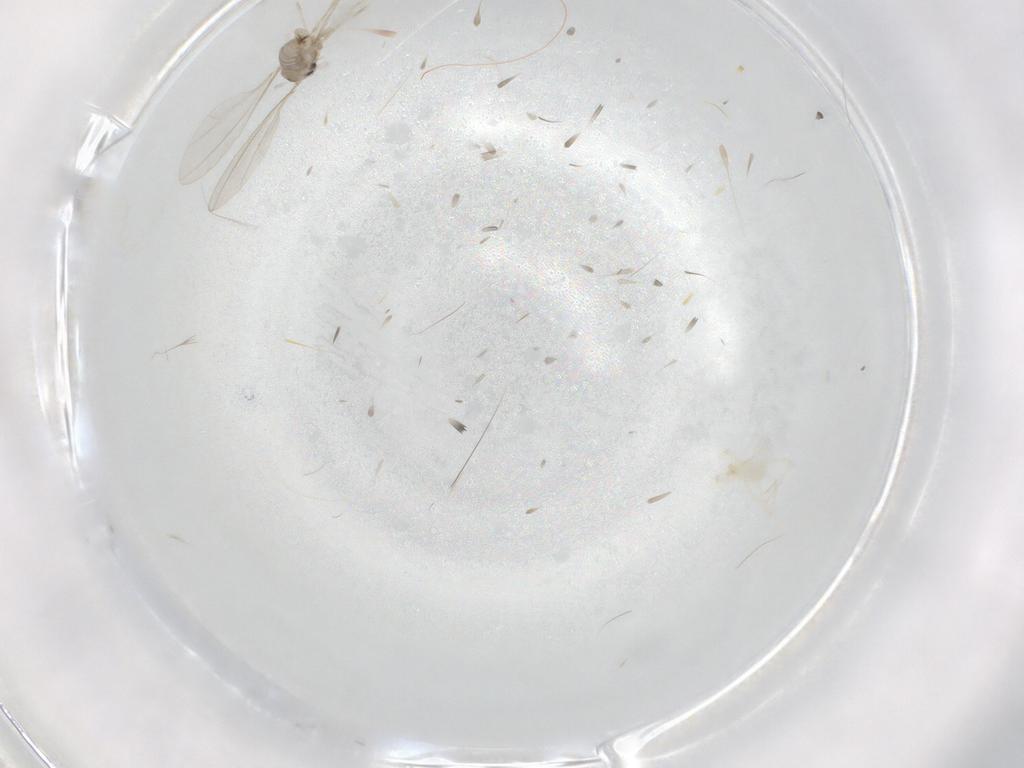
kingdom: Animalia
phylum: Arthropoda
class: Insecta
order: Diptera
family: Cecidomyiidae
